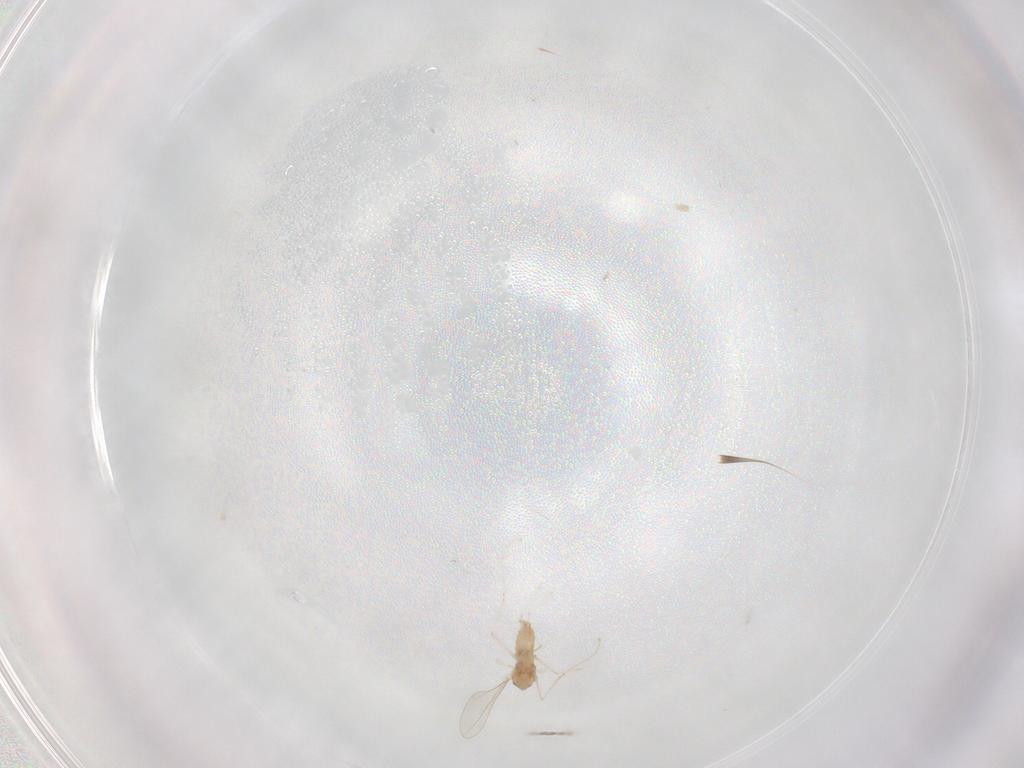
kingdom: Animalia
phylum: Arthropoda
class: Insecta
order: Diptera
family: Cecidomyiidae
